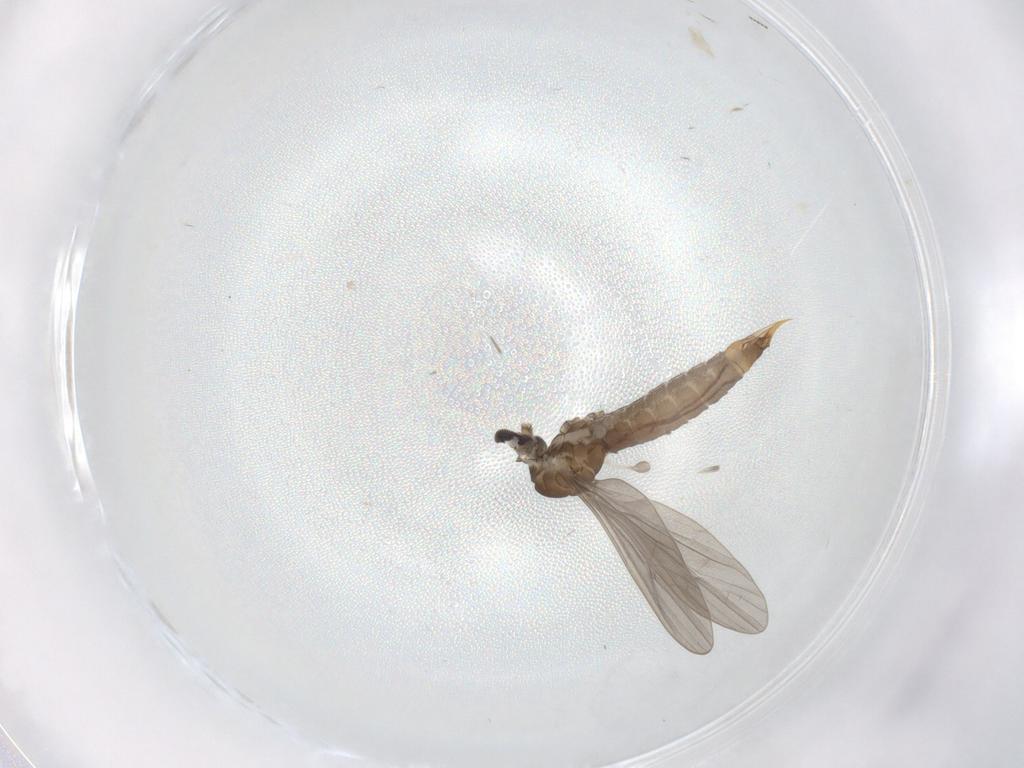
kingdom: Animalia
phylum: Arthropoda
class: Insecta
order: Diptera
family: Limoniidae
